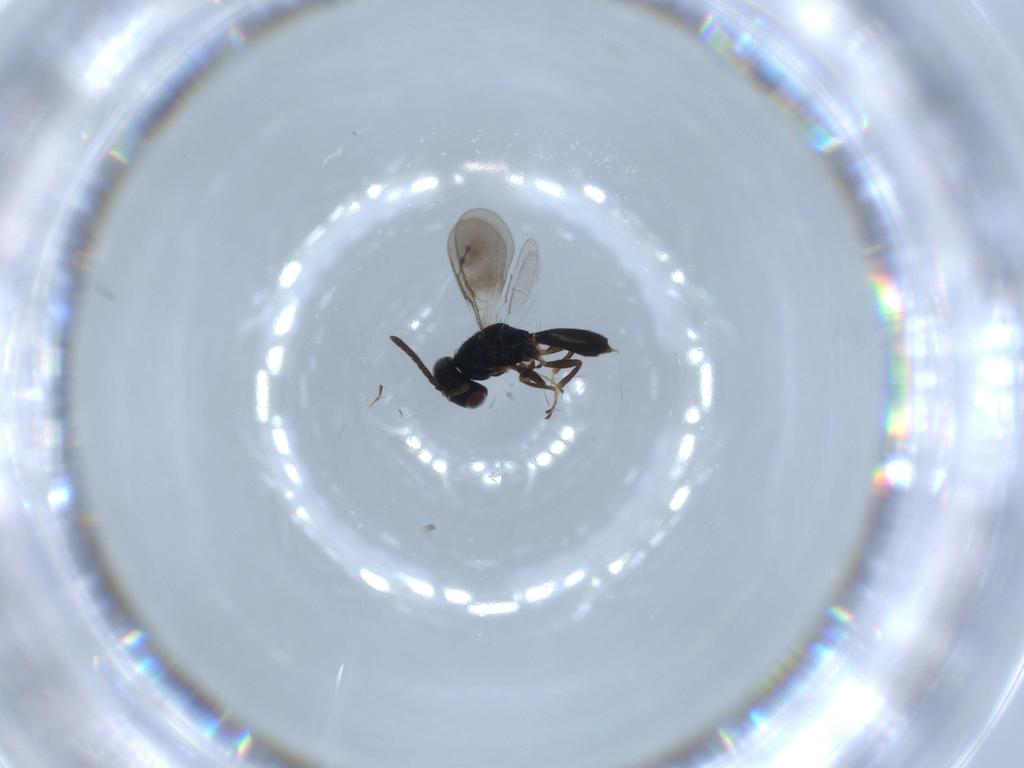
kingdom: Animalia
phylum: Arthropoda
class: Insecta
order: Hymenoptera
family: Pteromalidae
